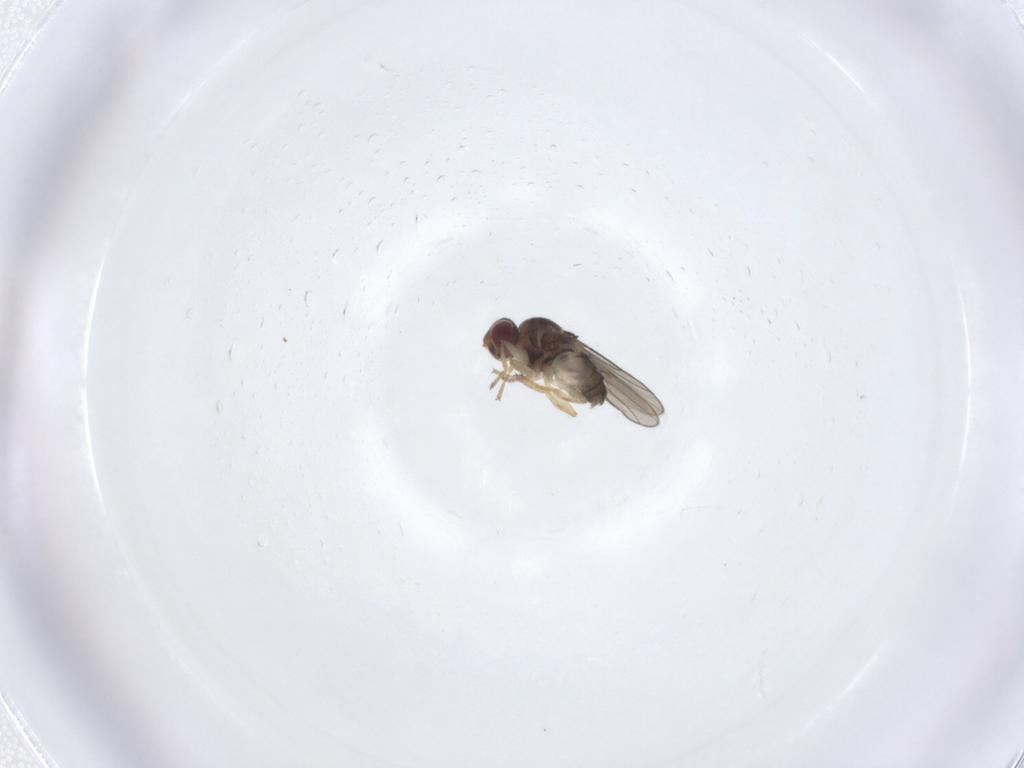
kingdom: Animalia
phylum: Arthropoda
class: Insecta
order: Diptera
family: Chloropidae
